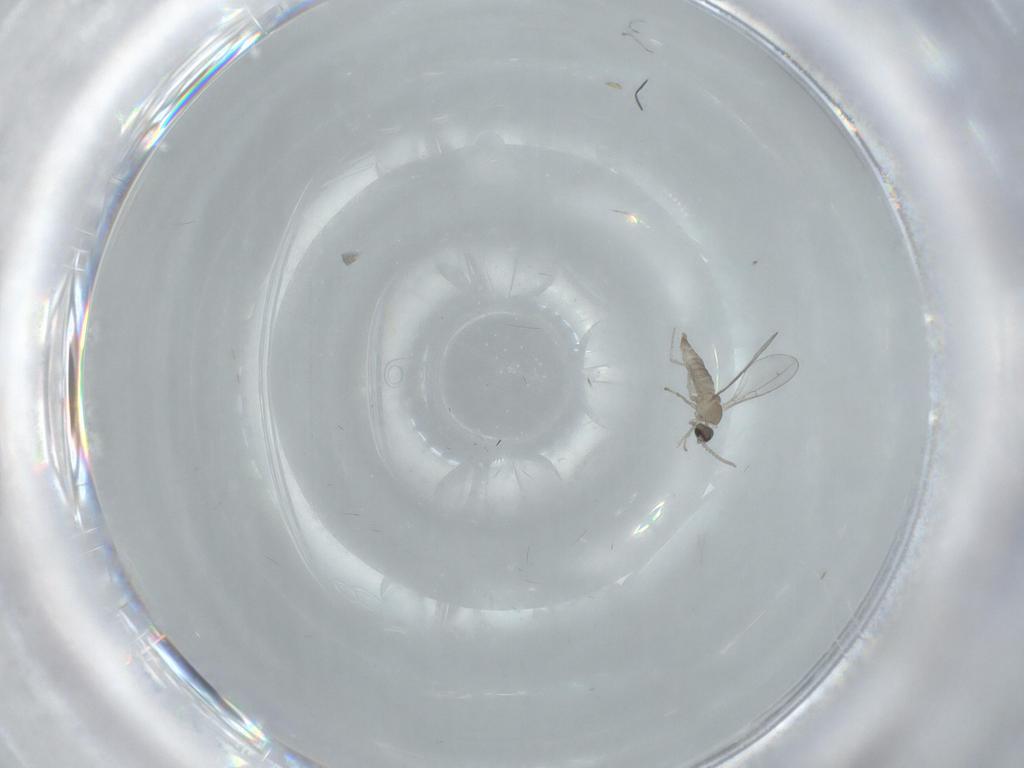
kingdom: Animalia
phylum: Arthropoda
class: Insecta
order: Diptera
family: Cecidomyiidae
